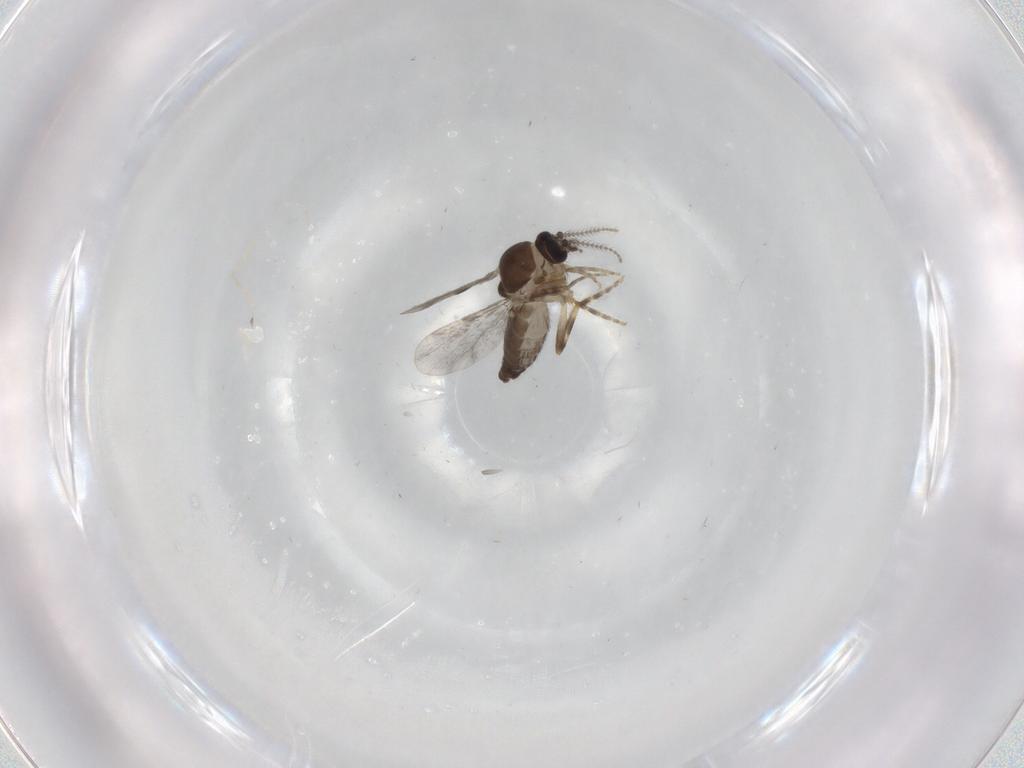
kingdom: Animalia
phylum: Arthropoda
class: Insecta
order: Diptera
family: Ceratopogonidae
